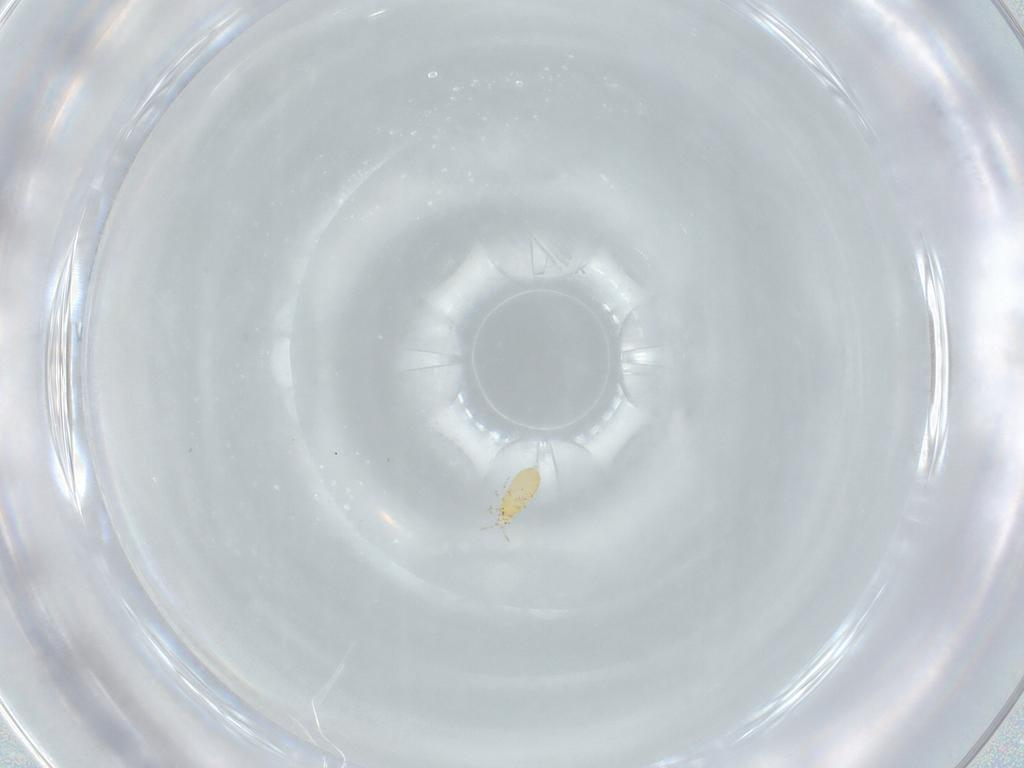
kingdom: Animalia
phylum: Arthropoda
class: Insecta
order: Thysanoptera
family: Thripidae
